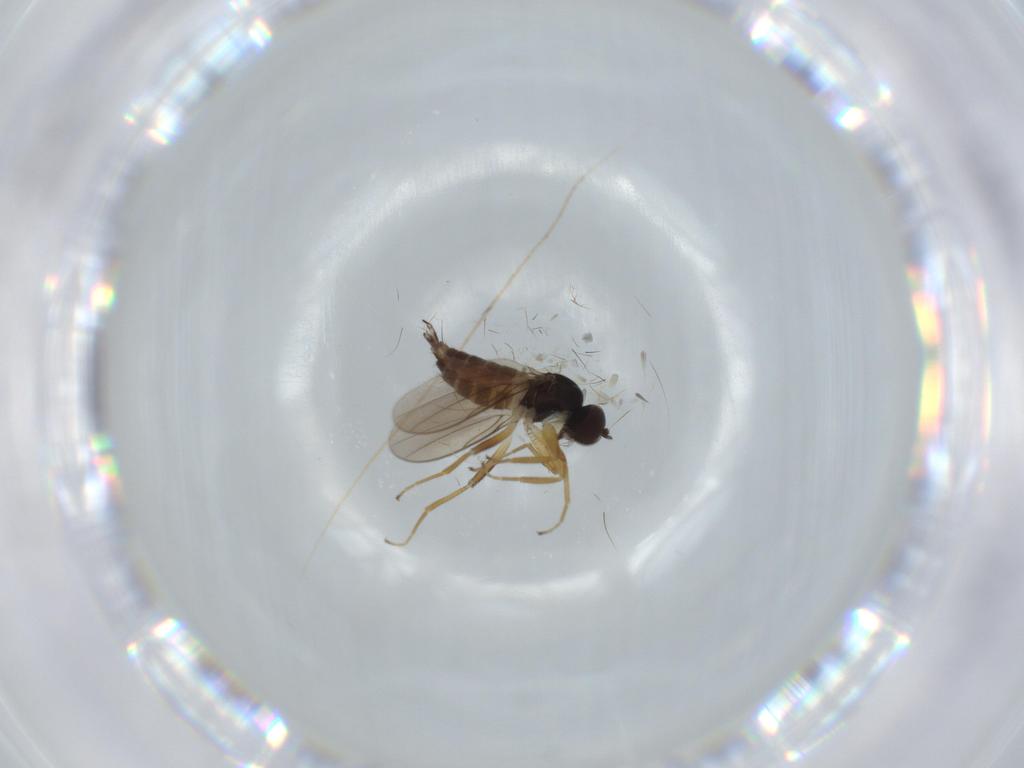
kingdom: Animalia
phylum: Arthropoda
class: Insecta
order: Diptera
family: Hybotidae
